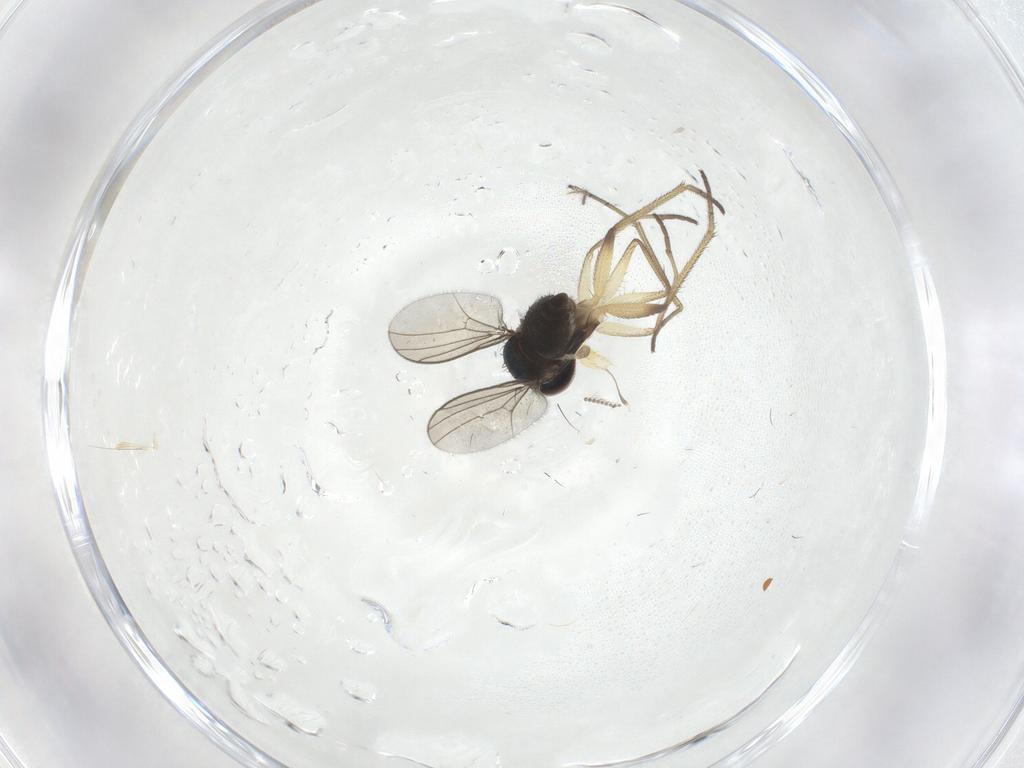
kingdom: Animalia
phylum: Arthropoda
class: Insecta
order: Diptera
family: Dolichopodidae
